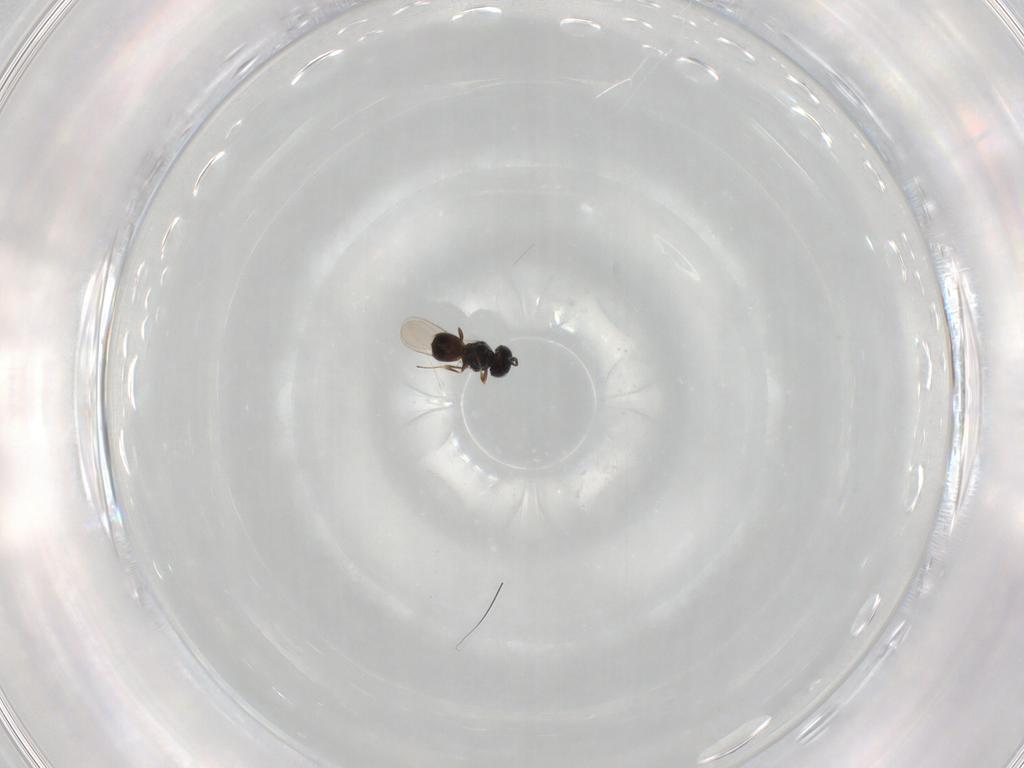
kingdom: Animalia
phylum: Arthropoda
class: Insecta
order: Hymenoptera
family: Scelionidae
